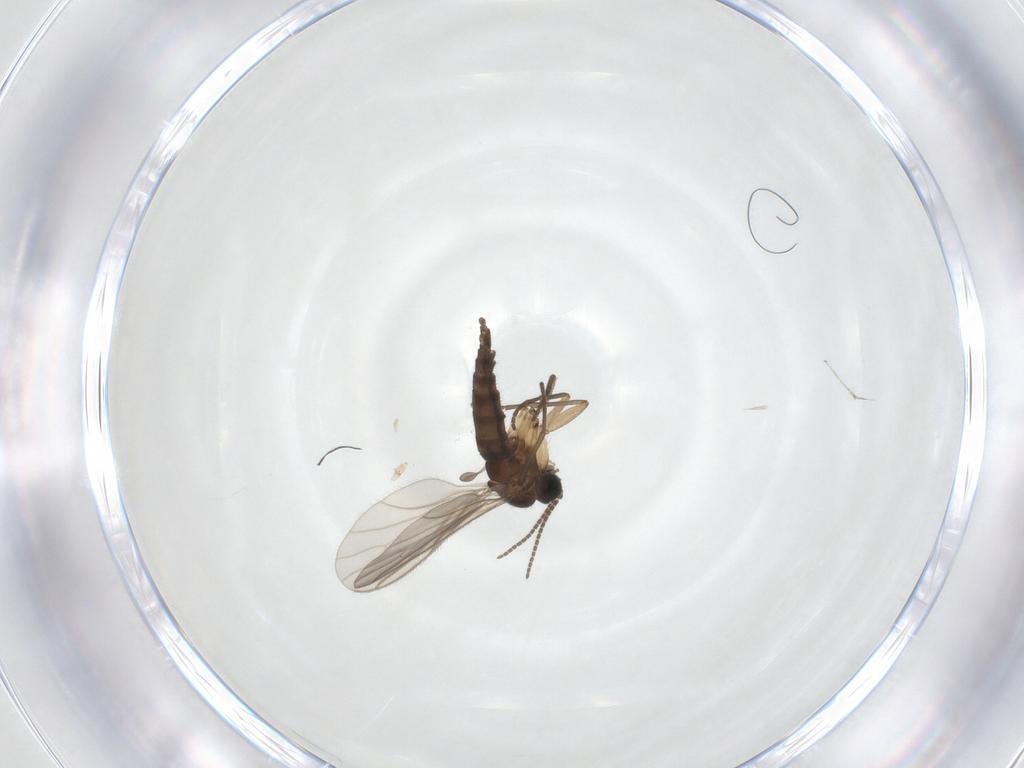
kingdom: Animalia
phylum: Arthropoda
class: Insecta
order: Diptera
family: Sciaridae
